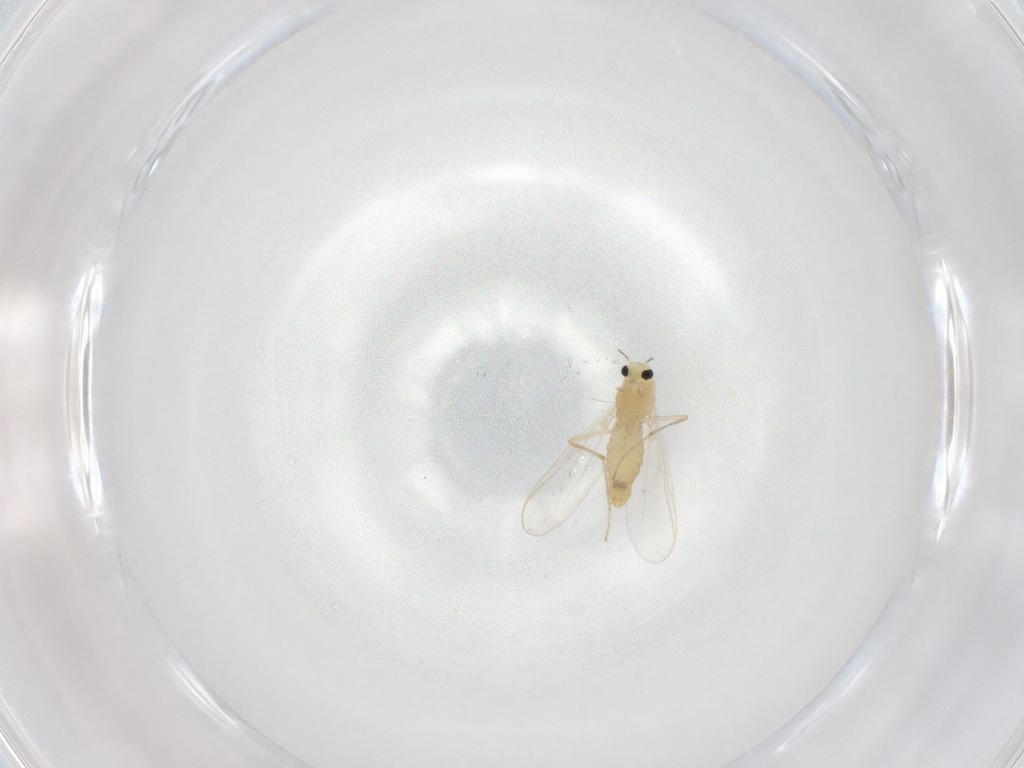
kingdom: Animalia
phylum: Arthropoda
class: Insecta
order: Diptera
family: Chironomidae
